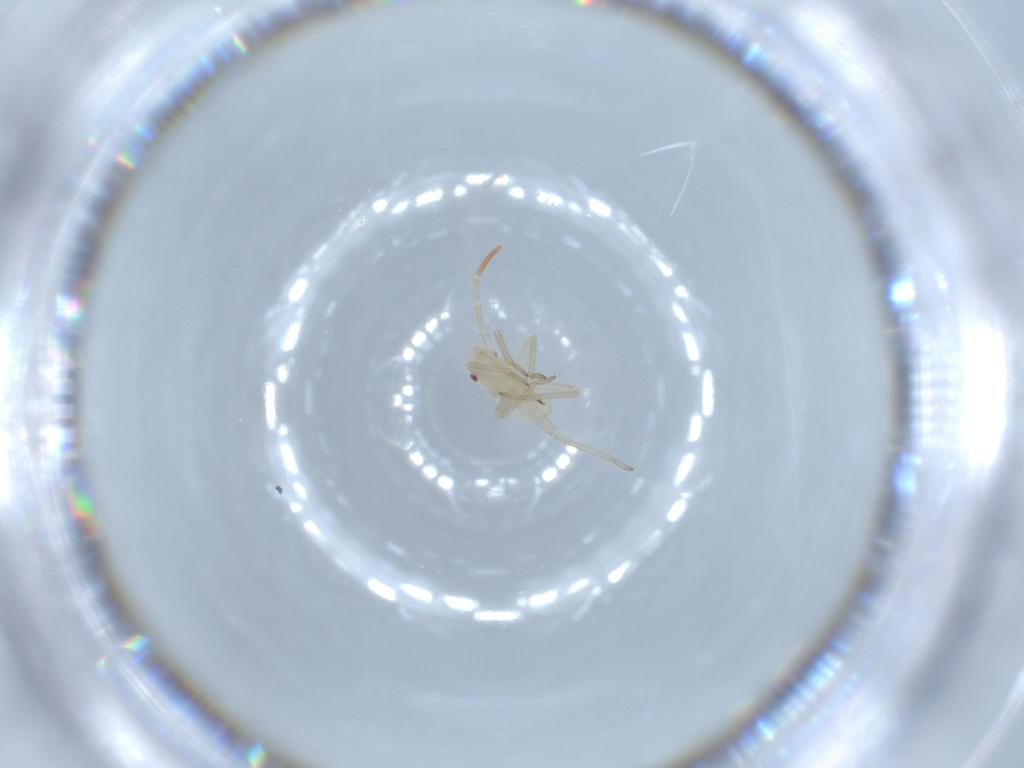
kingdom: Animalia
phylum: Arthropoda
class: Insecta
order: Hemiptera
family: Miridae
